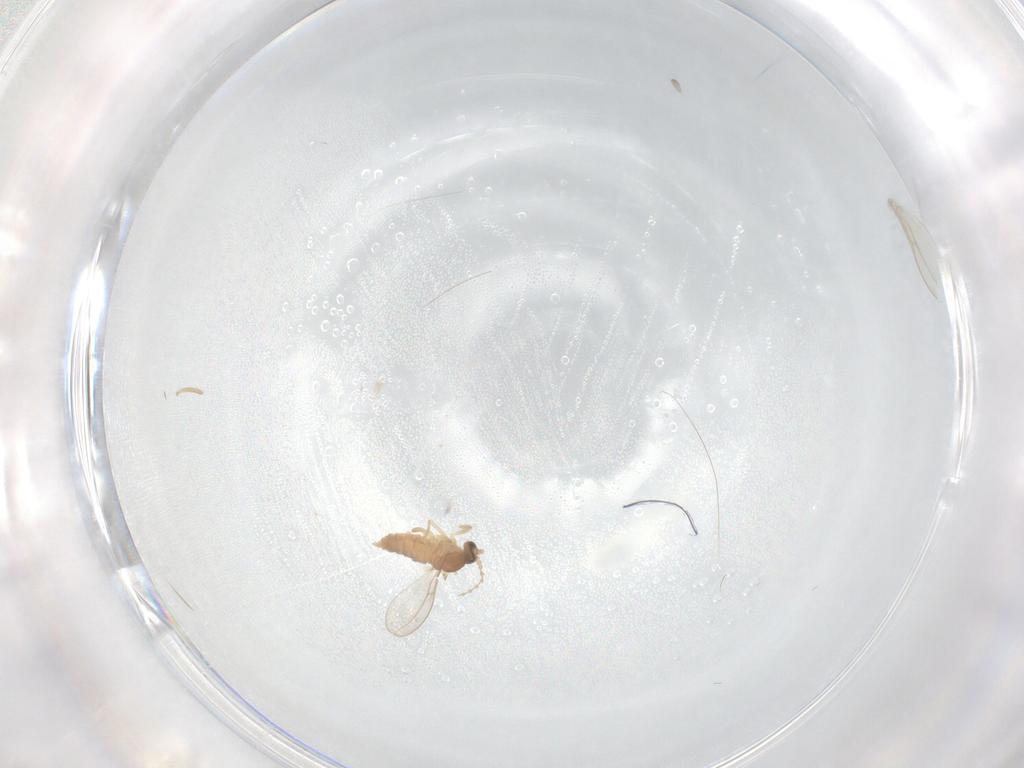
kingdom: Animalia
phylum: Arthropoda
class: Insecta
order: Diptera
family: Cecidomyiidae
